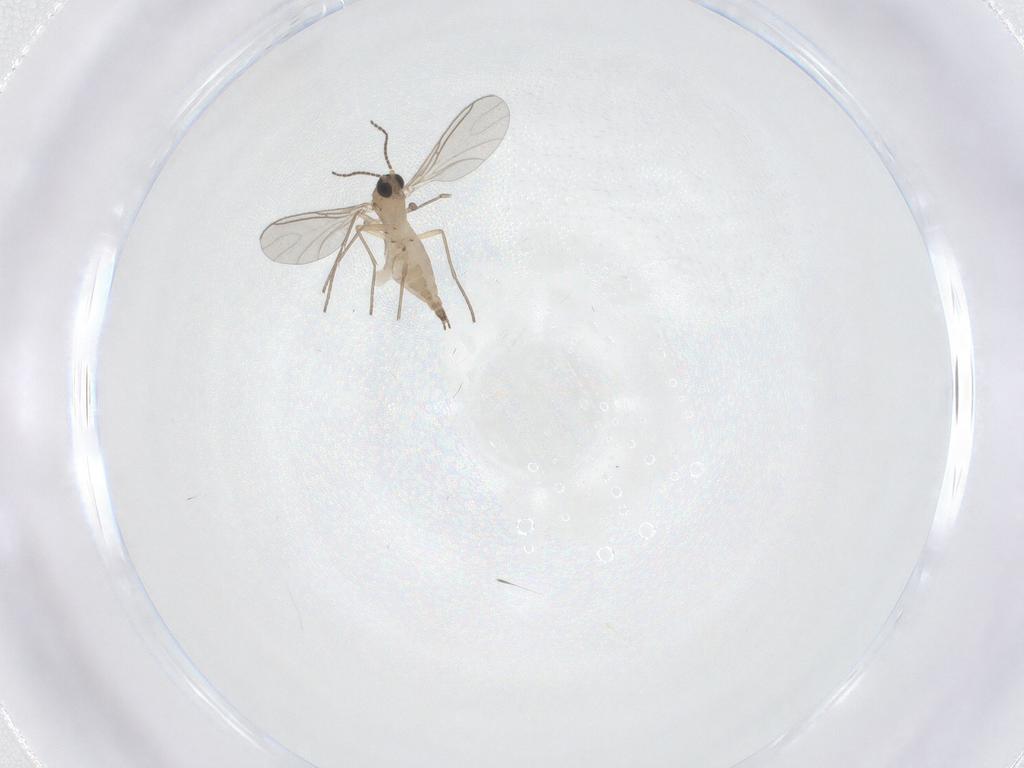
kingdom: Animalia
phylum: Arthropoda
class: Insecta
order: Diptera
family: Sciaridae
